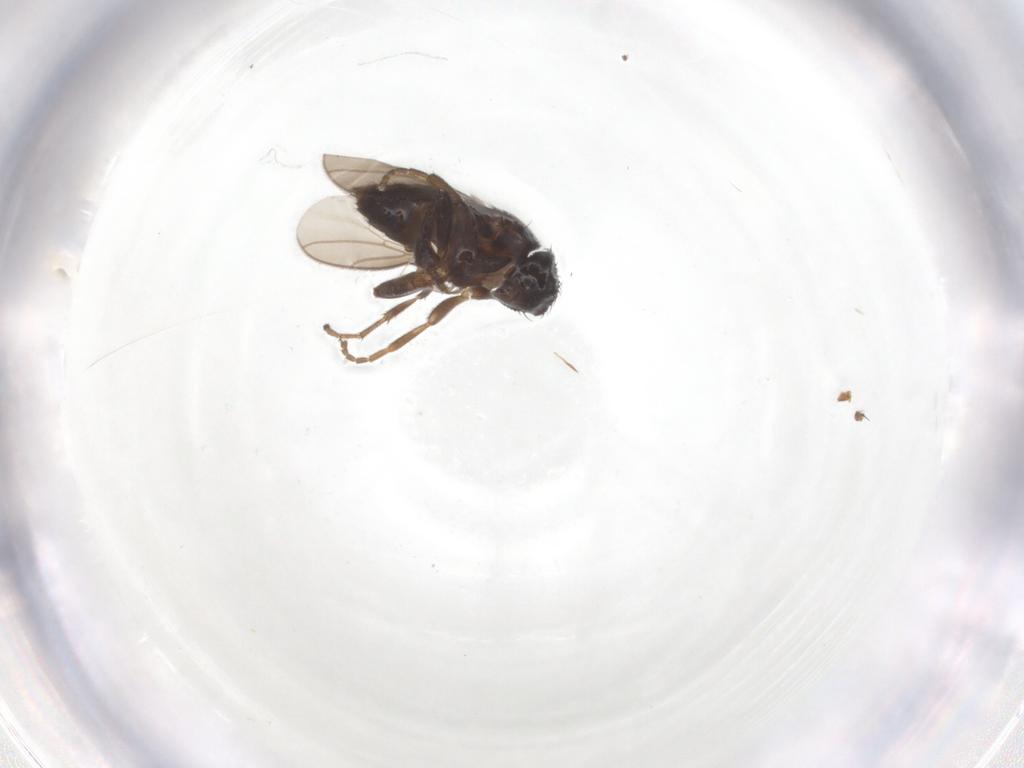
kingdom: Animalia
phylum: Arthropoda
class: Insecta
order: Diptera
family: Sphaeroceridae
